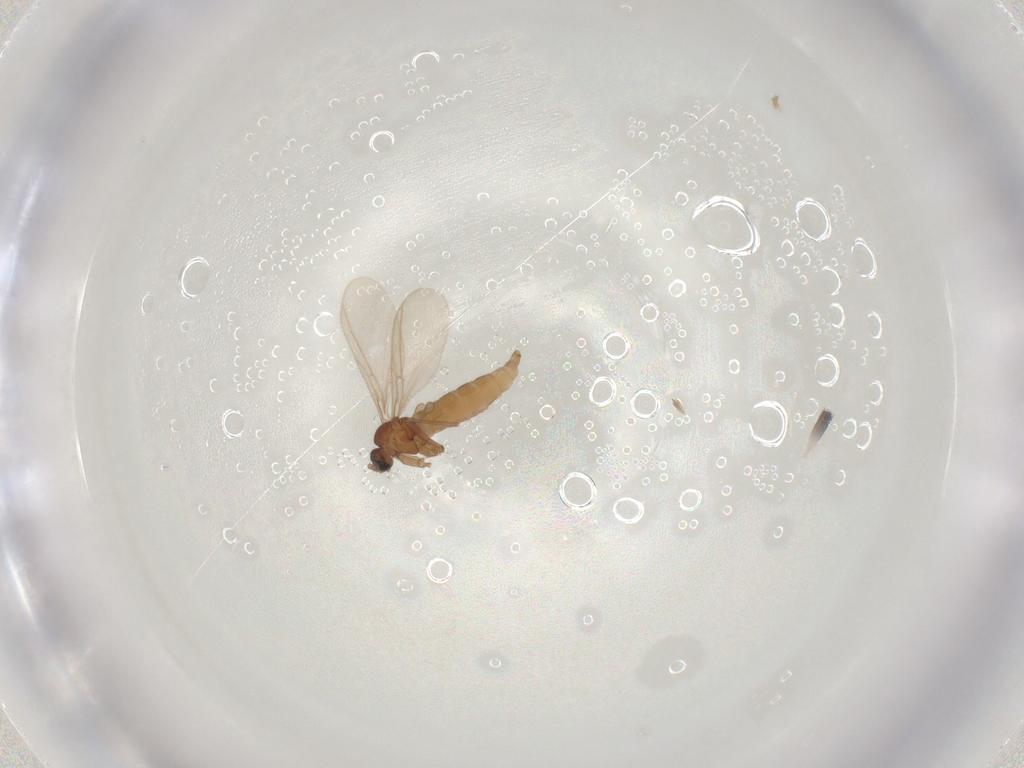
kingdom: Animalia
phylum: Arthropoda
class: Insecta
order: Diptera
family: Sciaridae
